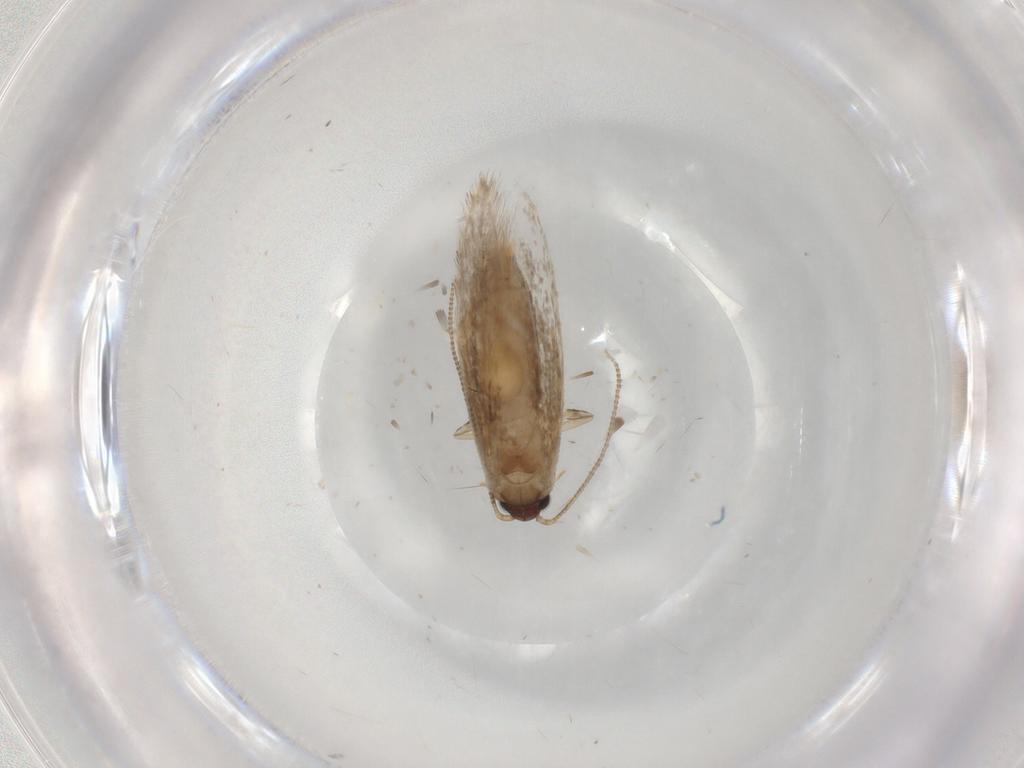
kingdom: Animalia
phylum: Arthropoda
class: Insecta
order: Lepidoptera
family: Tineidae
